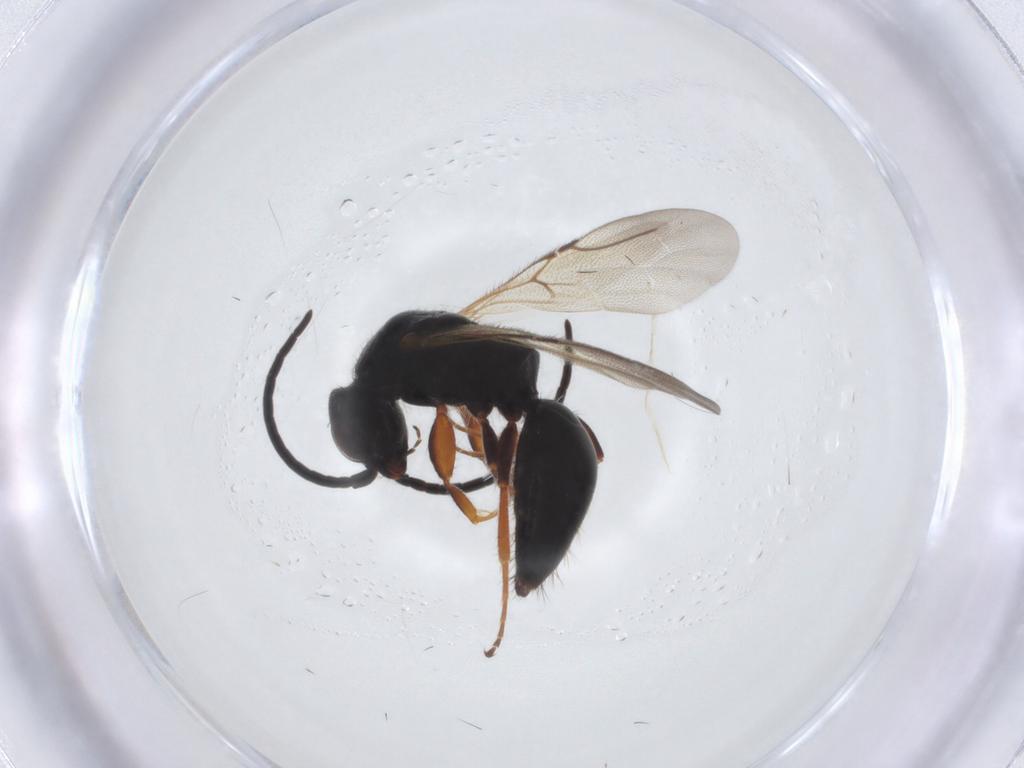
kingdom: Animalia
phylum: Arthropoda
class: Insecta
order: Hymenoptera
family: Bethylidae
